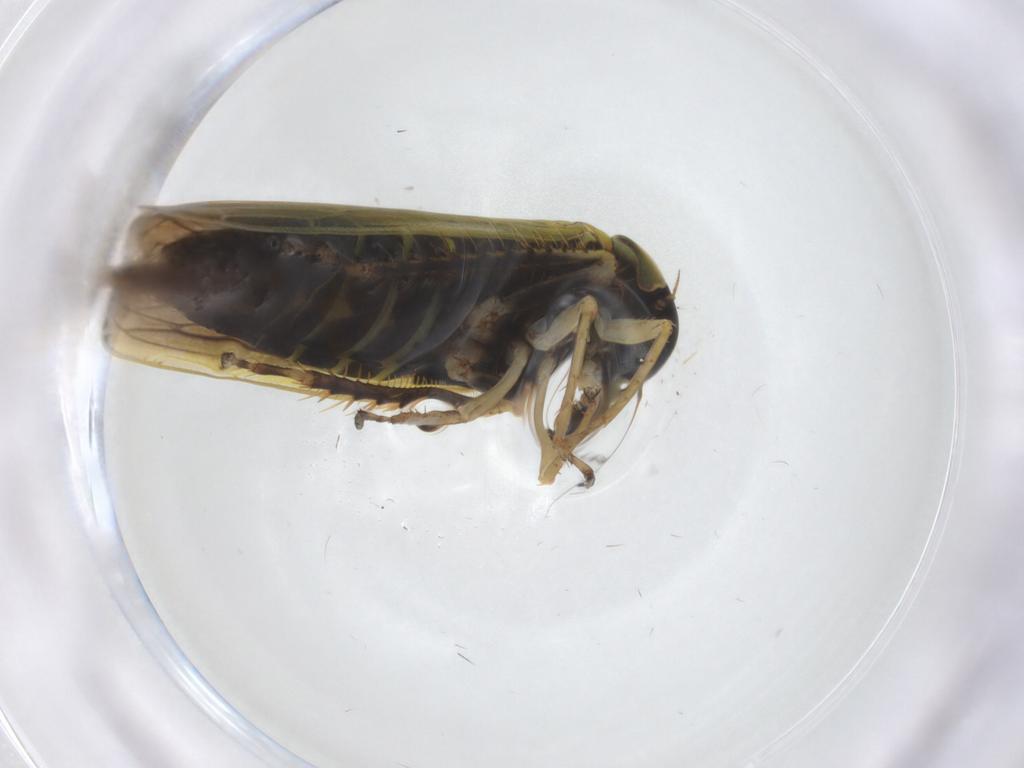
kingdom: Animalia
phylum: Arthropoda
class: Insecta
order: Hemiptera
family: Cicadellidae
